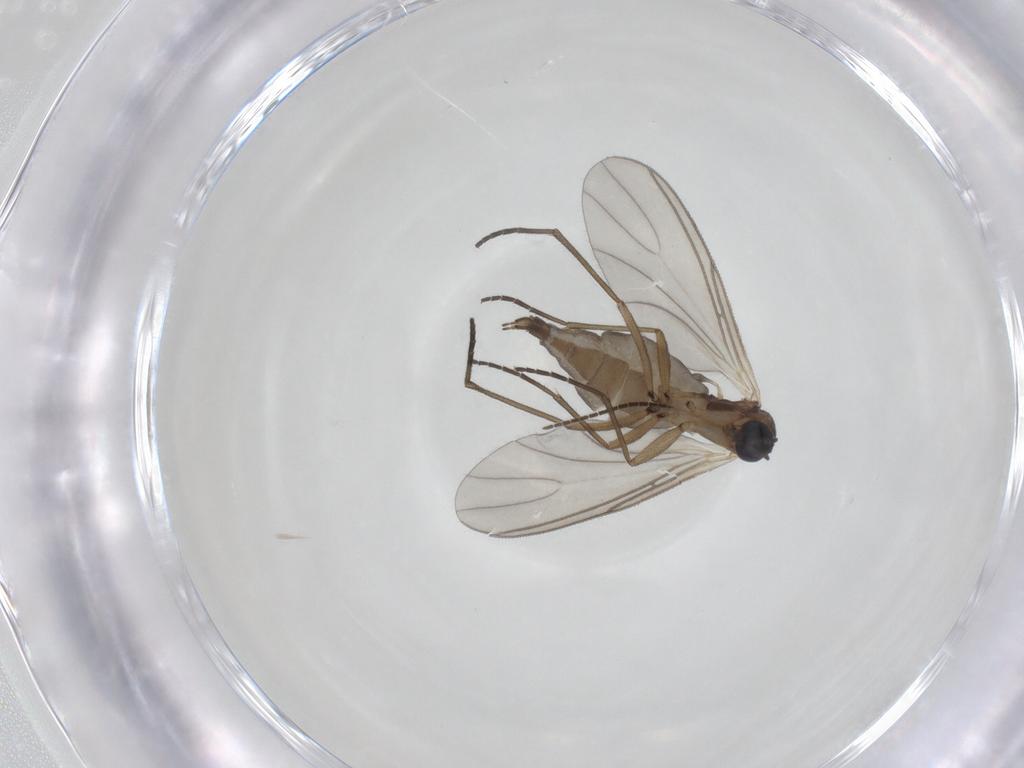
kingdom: Animalia
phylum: Arthropoda
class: Insecta
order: Diptera
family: Sciaridae
